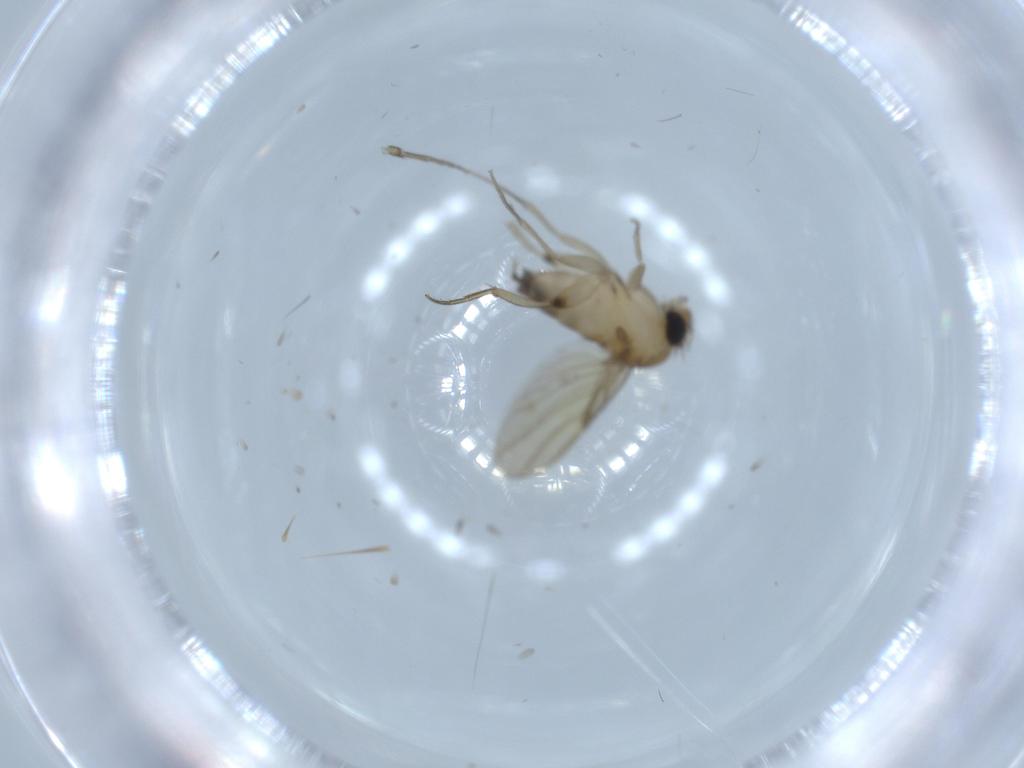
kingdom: Animalia
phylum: Arthropoda
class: Insecta
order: Diptera
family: Phoridae
